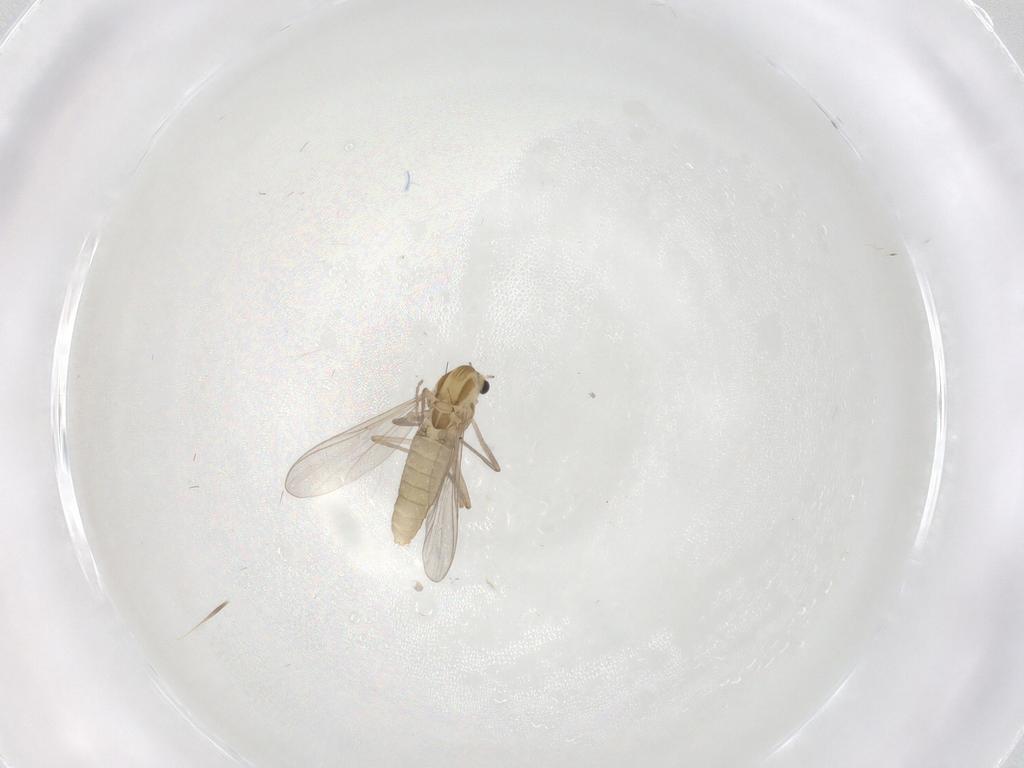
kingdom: Animalia
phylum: Arthropoda
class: Insecta
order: Diptera
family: Chironomidae
